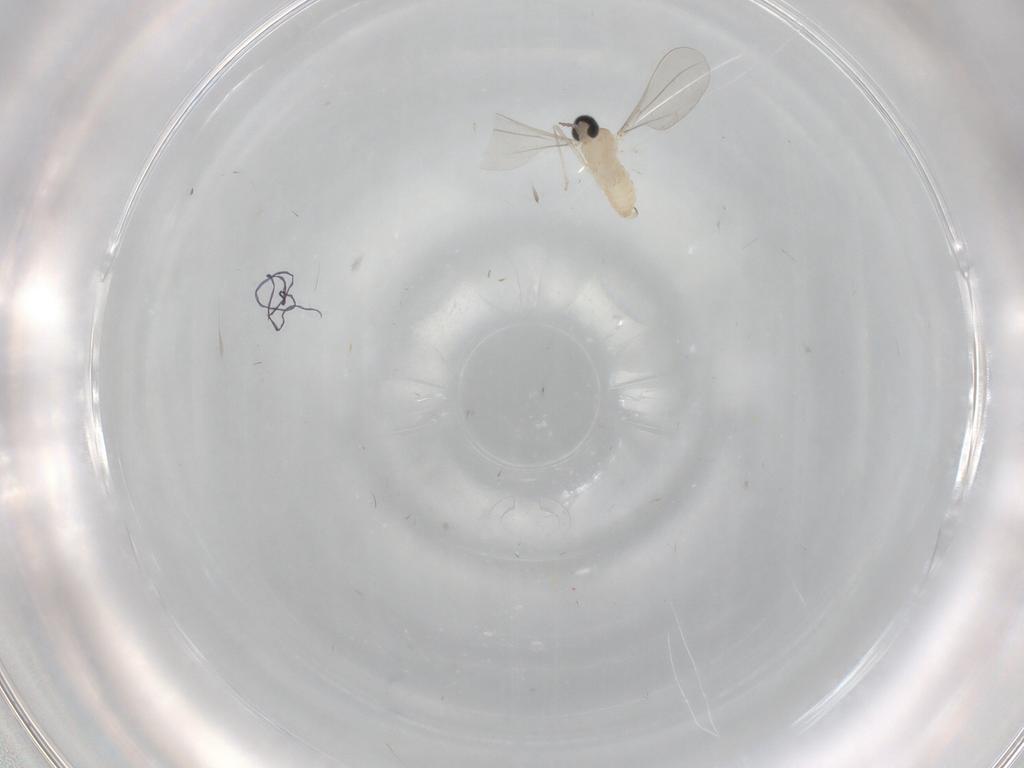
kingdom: Animalia
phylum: Arthropoda
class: Insecta
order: Diptera
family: Cecidomyiidae
